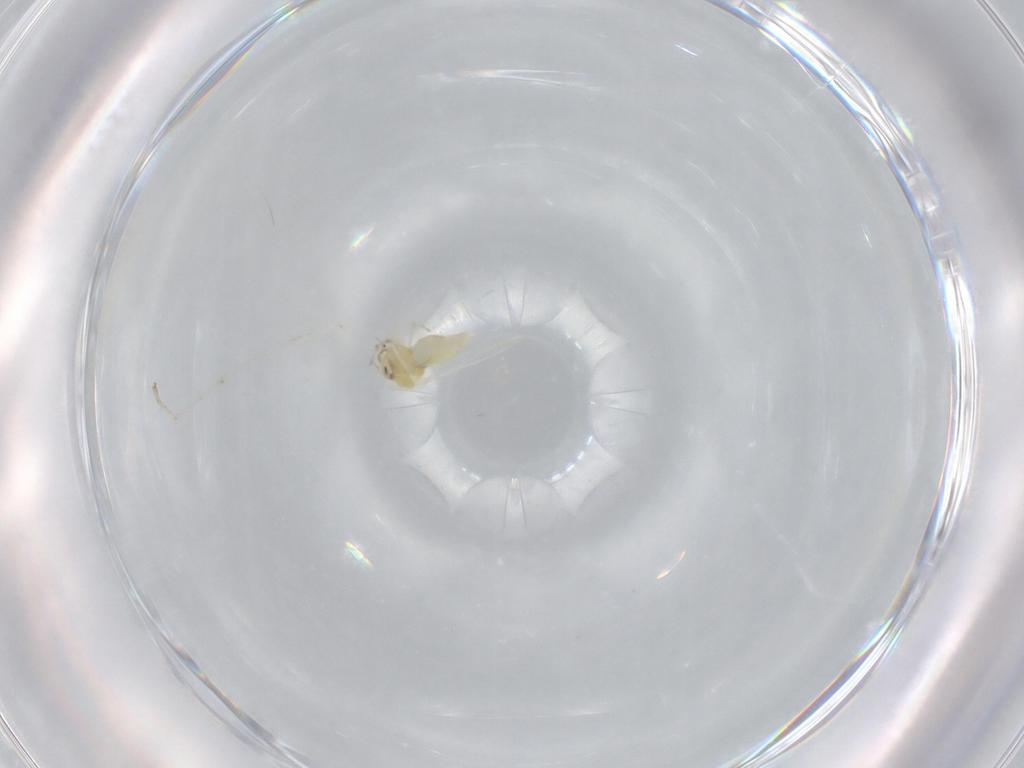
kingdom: Animalia
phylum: Arthropoda
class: Insecta
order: Hemiptera
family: Aleyrodidae
